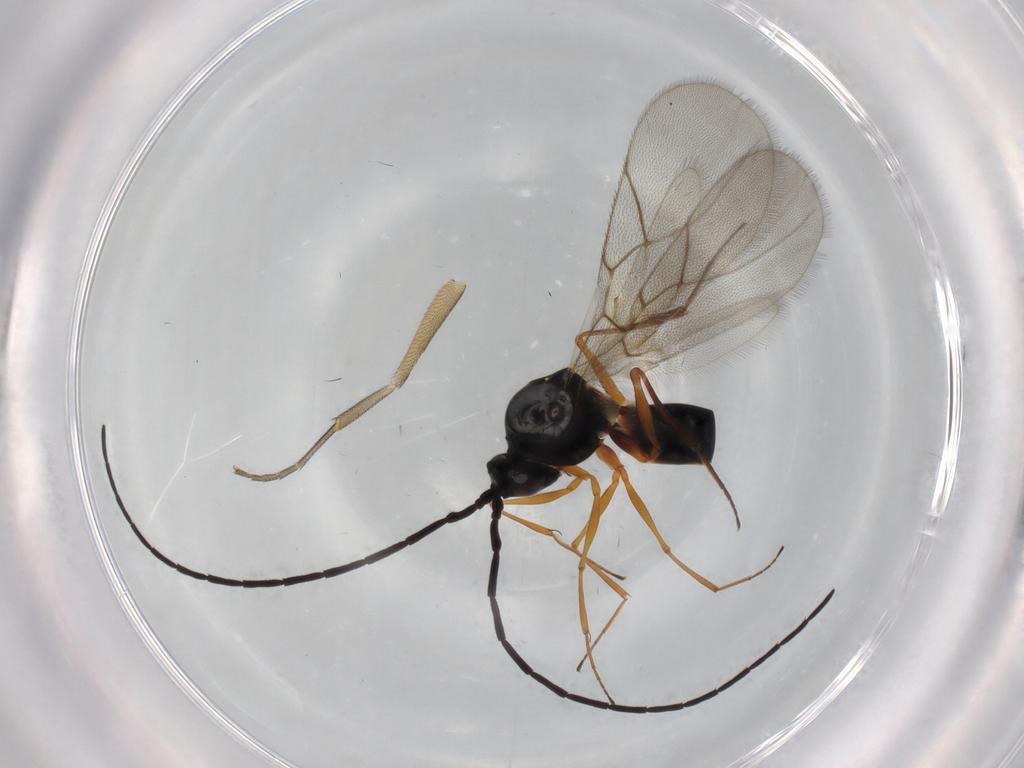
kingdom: Animalia
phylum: Arthropoda
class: Insecta
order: Hymenoptera
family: Figitidae
